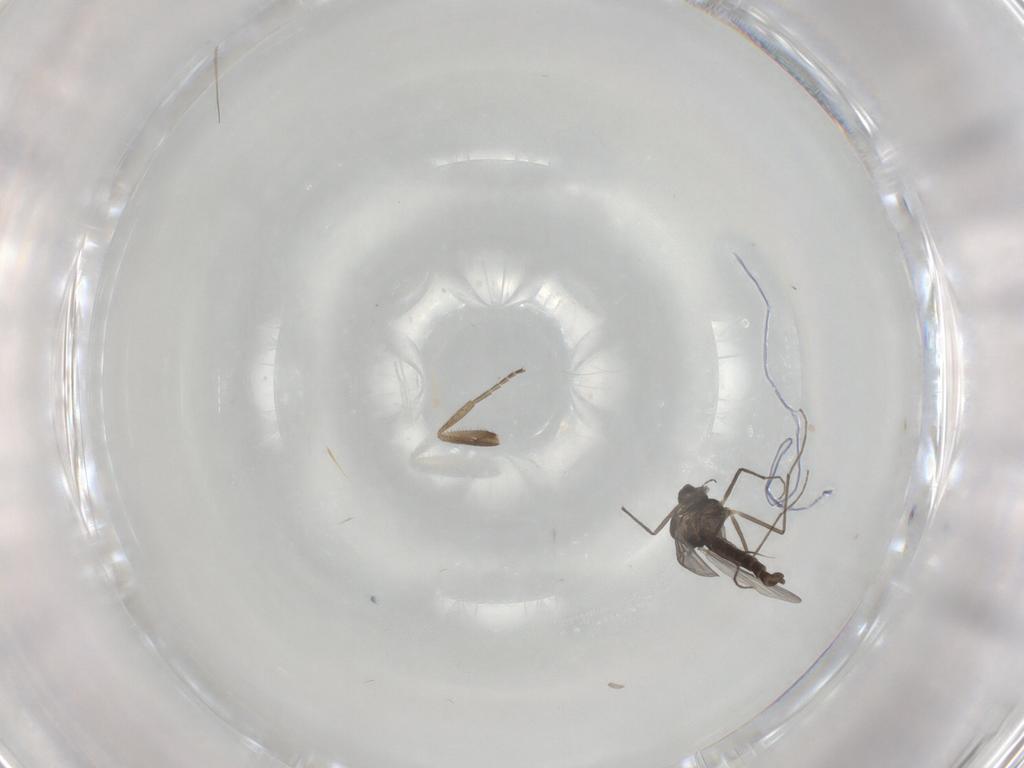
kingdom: Animalia
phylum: Arthropoda
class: Insecta
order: Diptera
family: Chironomidae
